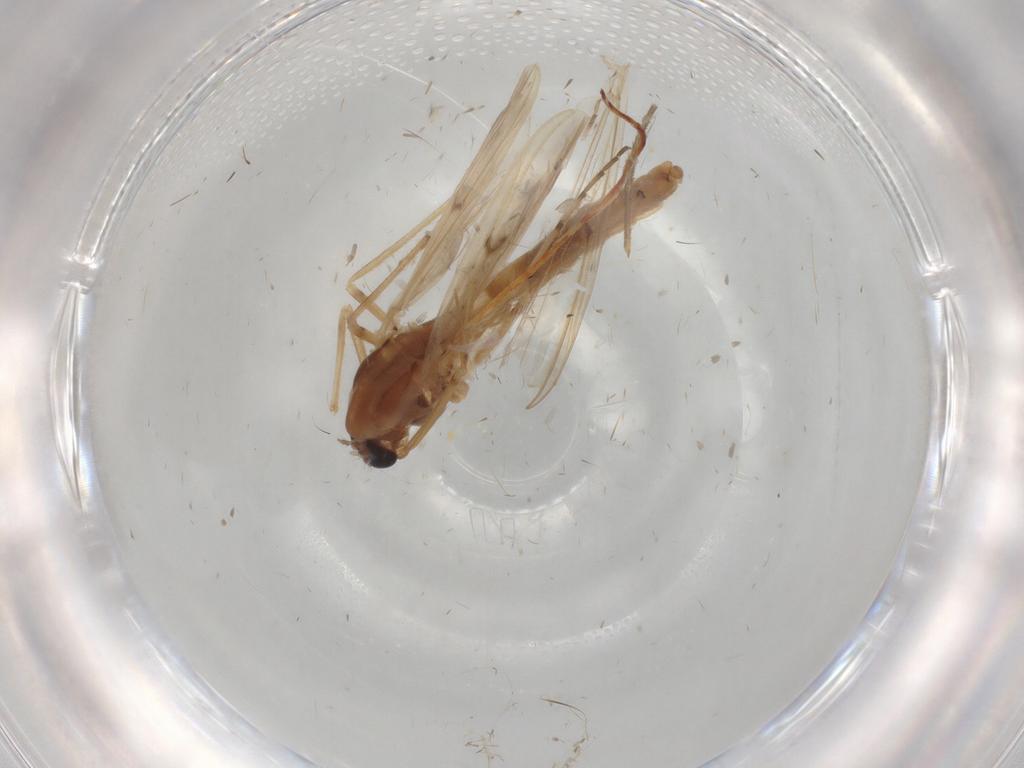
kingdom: Animalia
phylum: Arthropoda
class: Insecta
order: Diptera
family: Chironomidae
